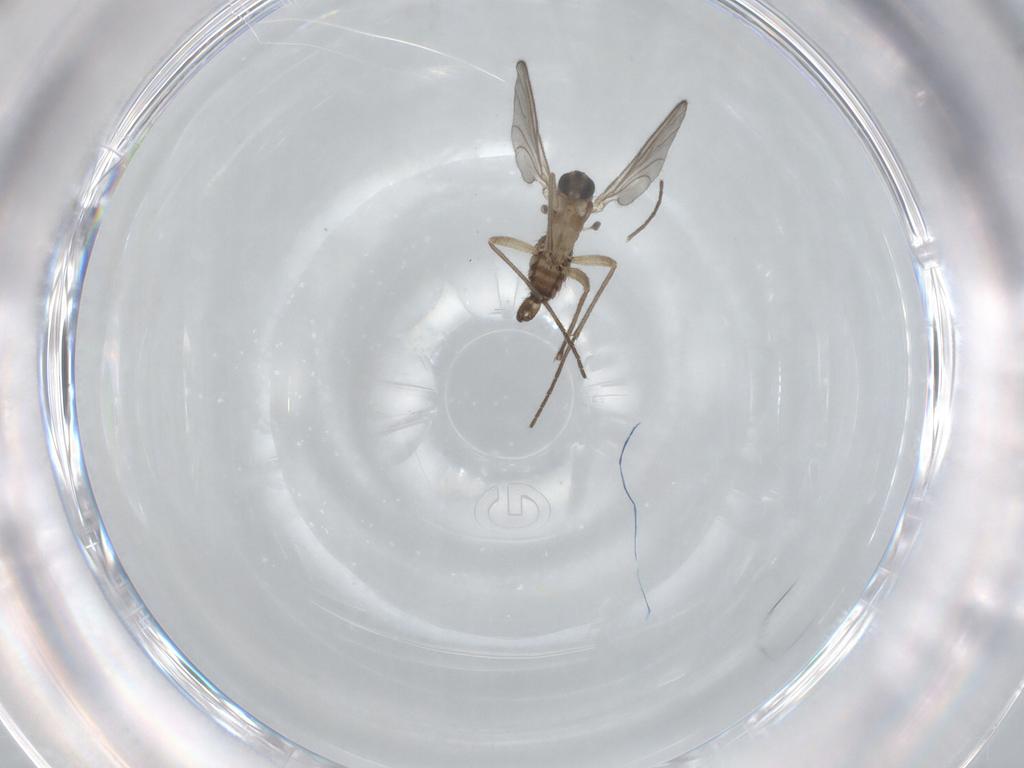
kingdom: Animalia
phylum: Arthropoda
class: Insecta
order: Diptera
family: Sciaridae
